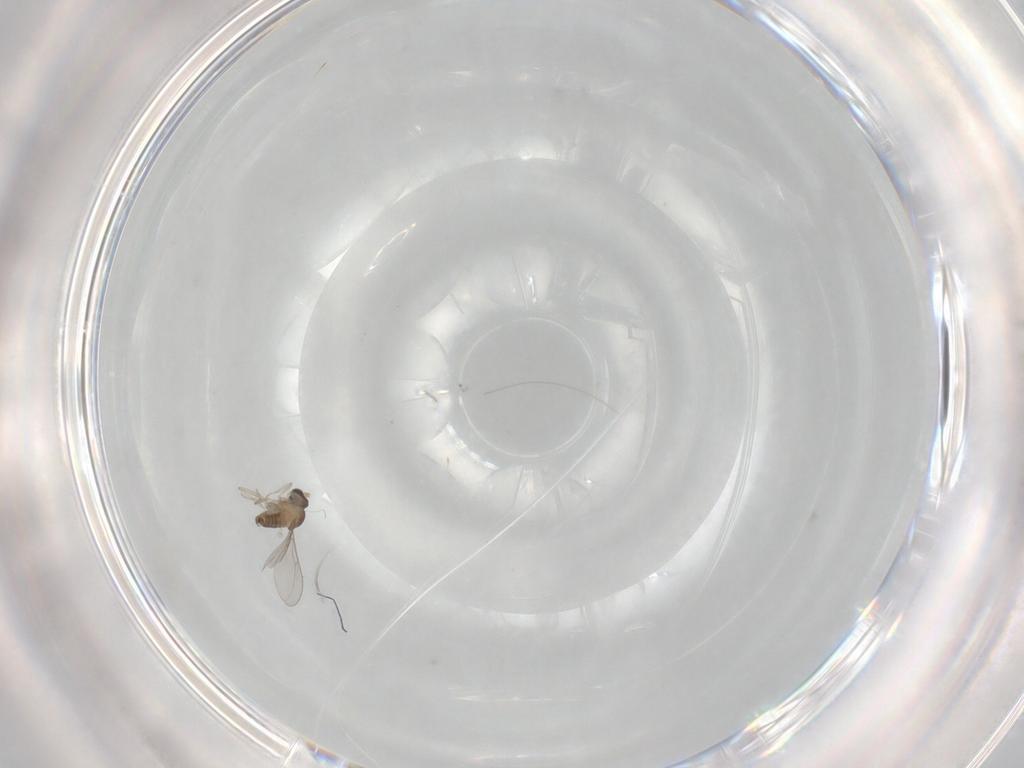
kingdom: Animalia
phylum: Arthropoda
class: Insecta
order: Diptera
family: Cecidomyiidae
